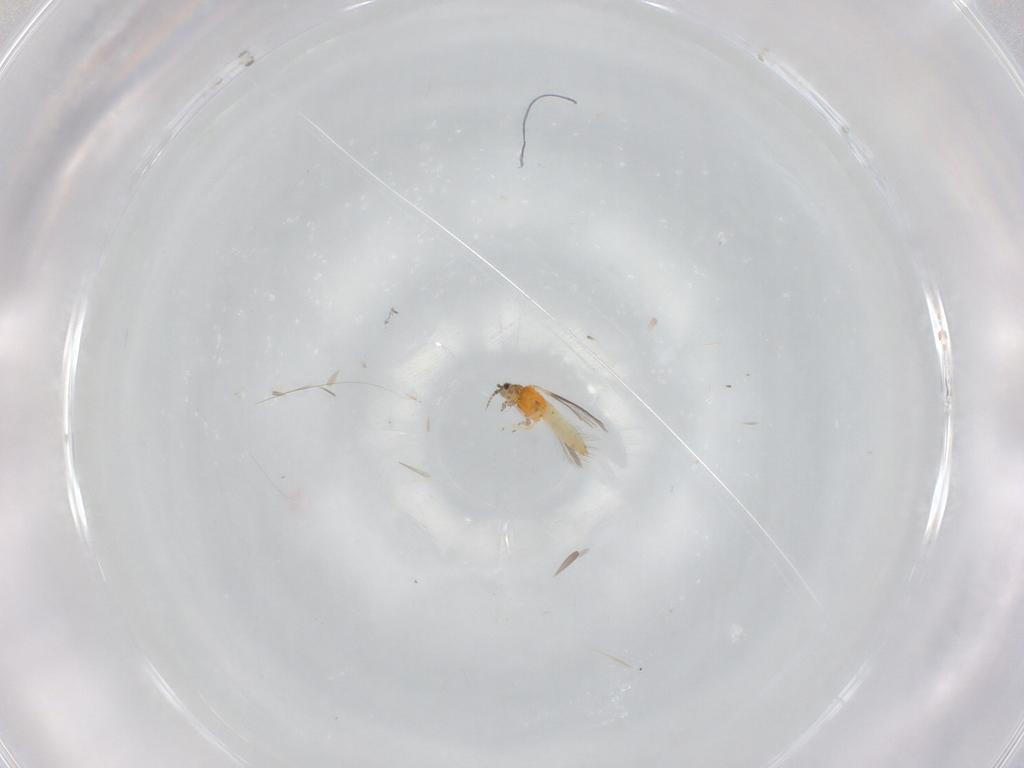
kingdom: Animalia
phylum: Arthropoda
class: Insecta
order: Thysanoptera
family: Thripidae
